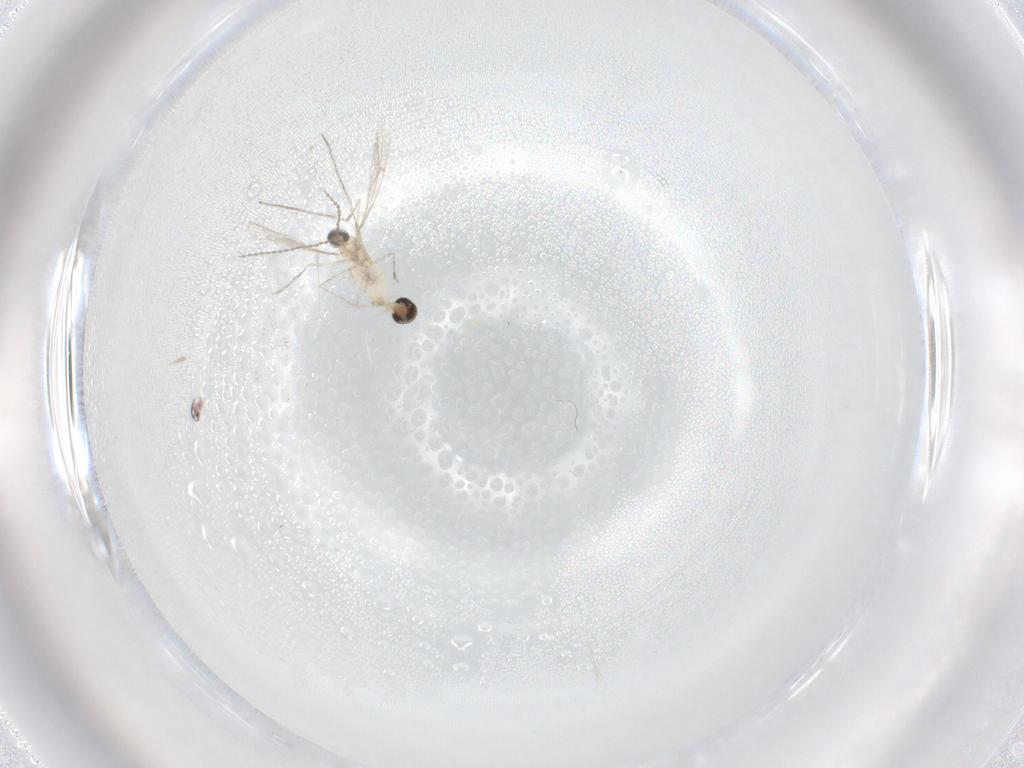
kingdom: Animalia
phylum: Arthropoda
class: Insecta
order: Diptera
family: Cecidomyiidae
